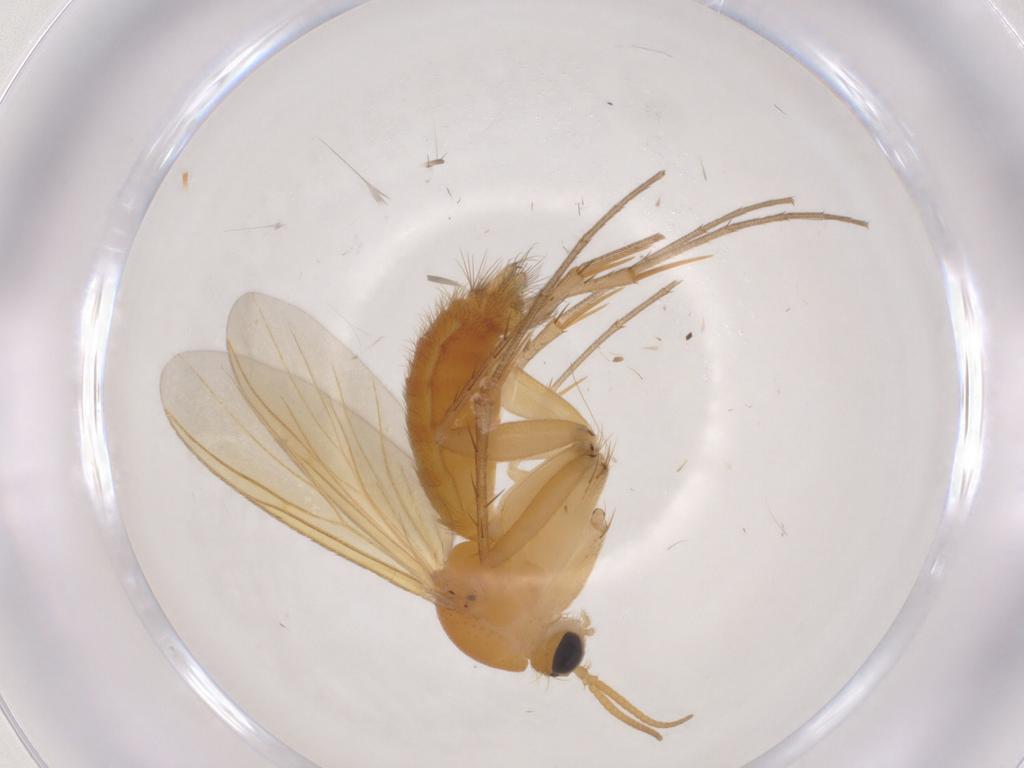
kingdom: Animalia
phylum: Arthropoda
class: Insecta
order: Diptera
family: Mycetophilidae
